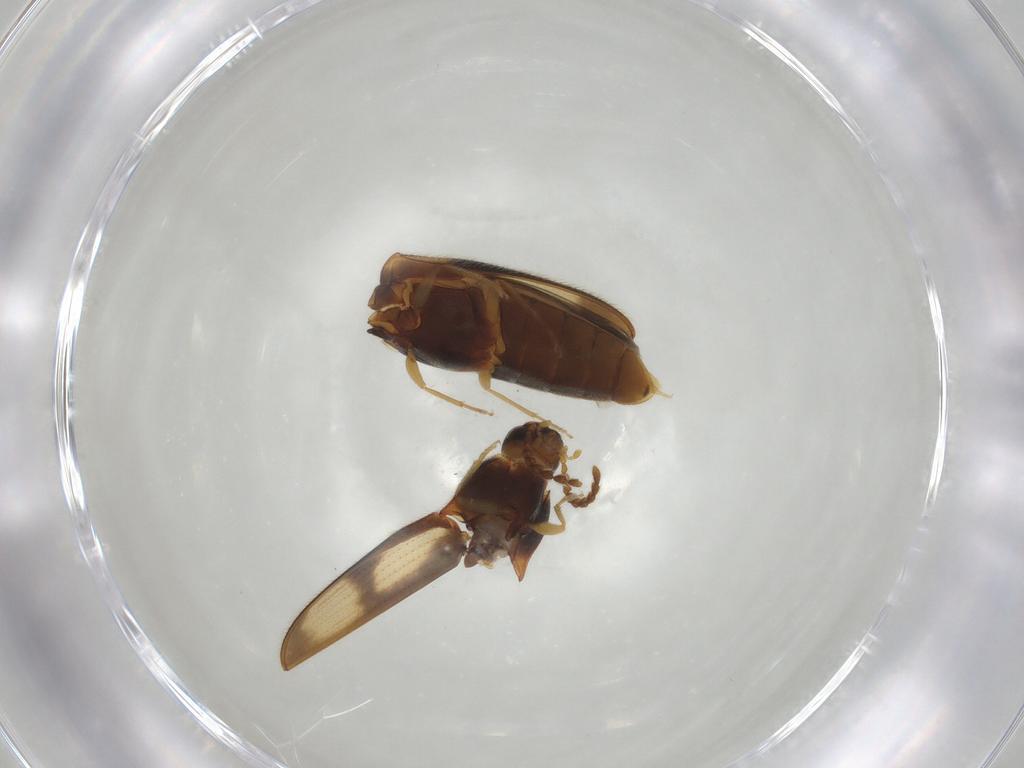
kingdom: Animalia
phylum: Arthropoda
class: Insecta
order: Coleoptera
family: Elateridae
